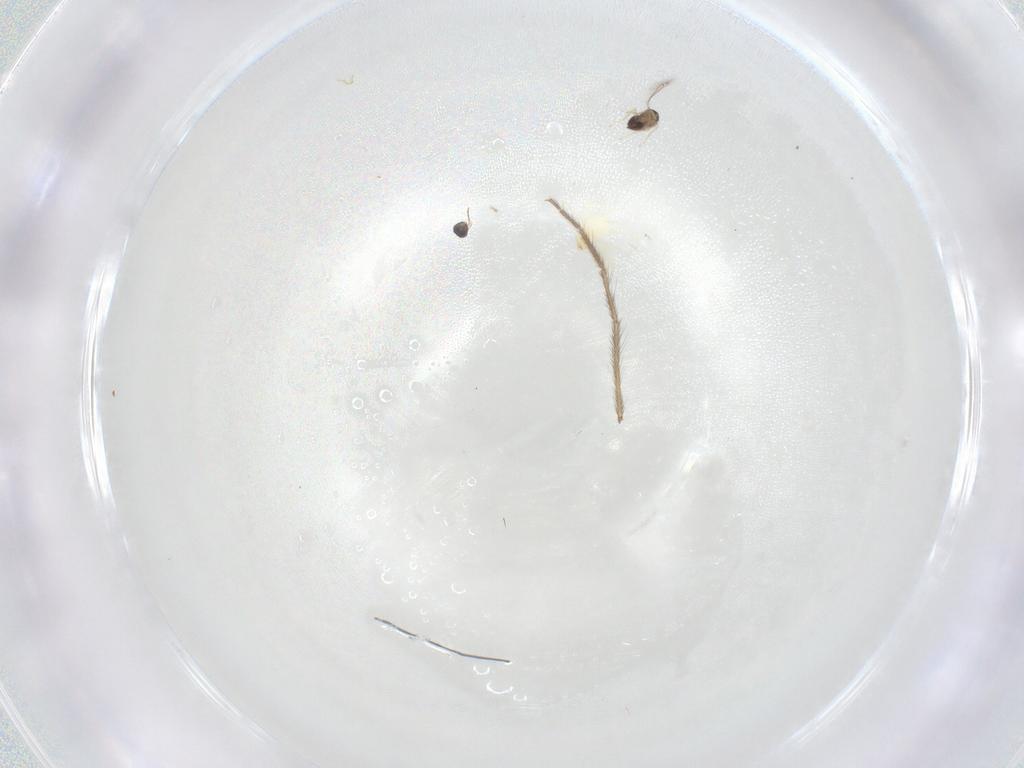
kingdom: Animalia
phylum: Arthropoda
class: Arachnida
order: Trombidiformes
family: Erythraeidae
